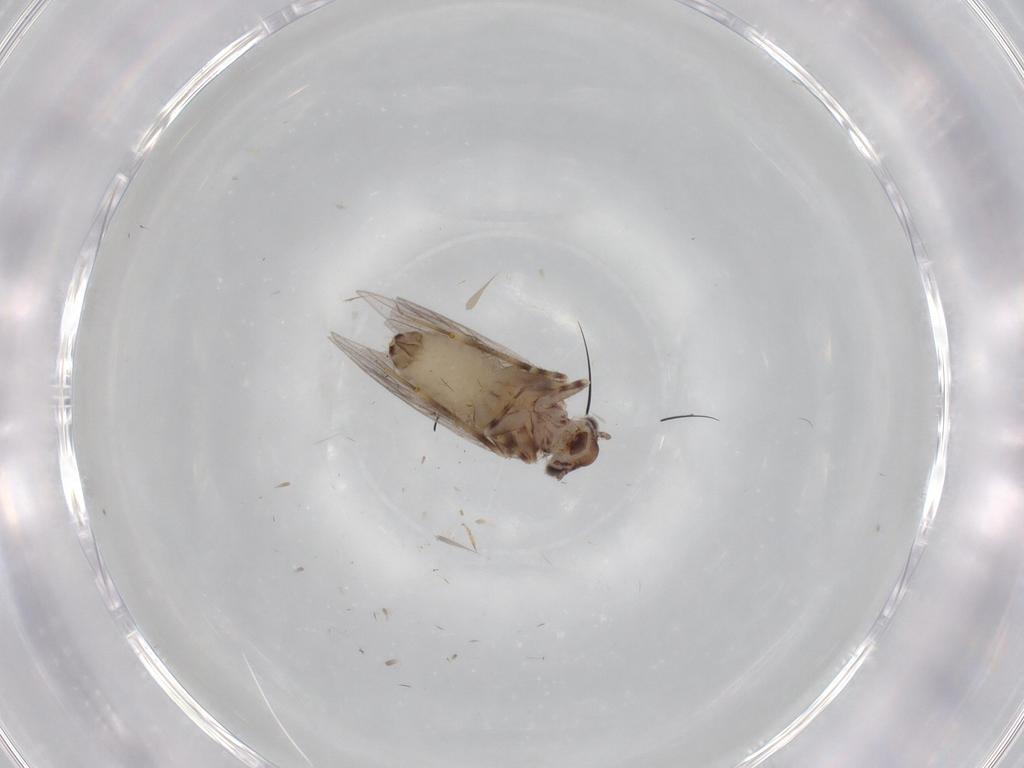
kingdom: Animalia
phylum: Arthropoda
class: Insecta
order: Psocodea
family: Lepidopsocidae
